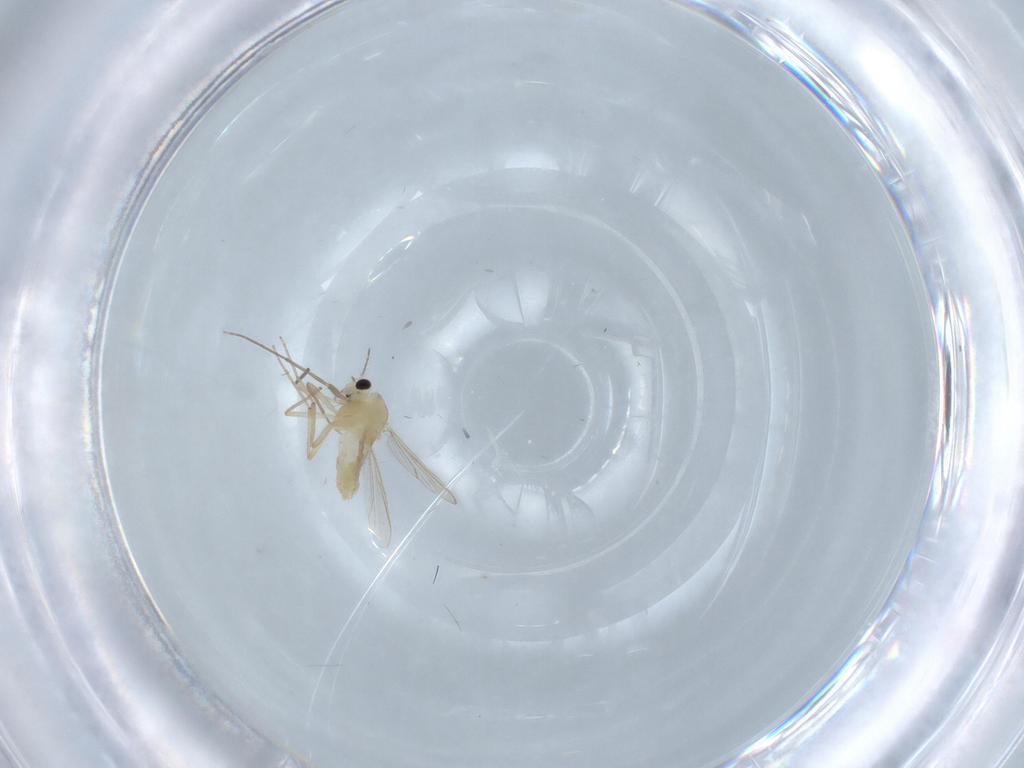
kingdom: Animalia
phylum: Arthropoda
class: Insecta
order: Diptera
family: Chironomidae
